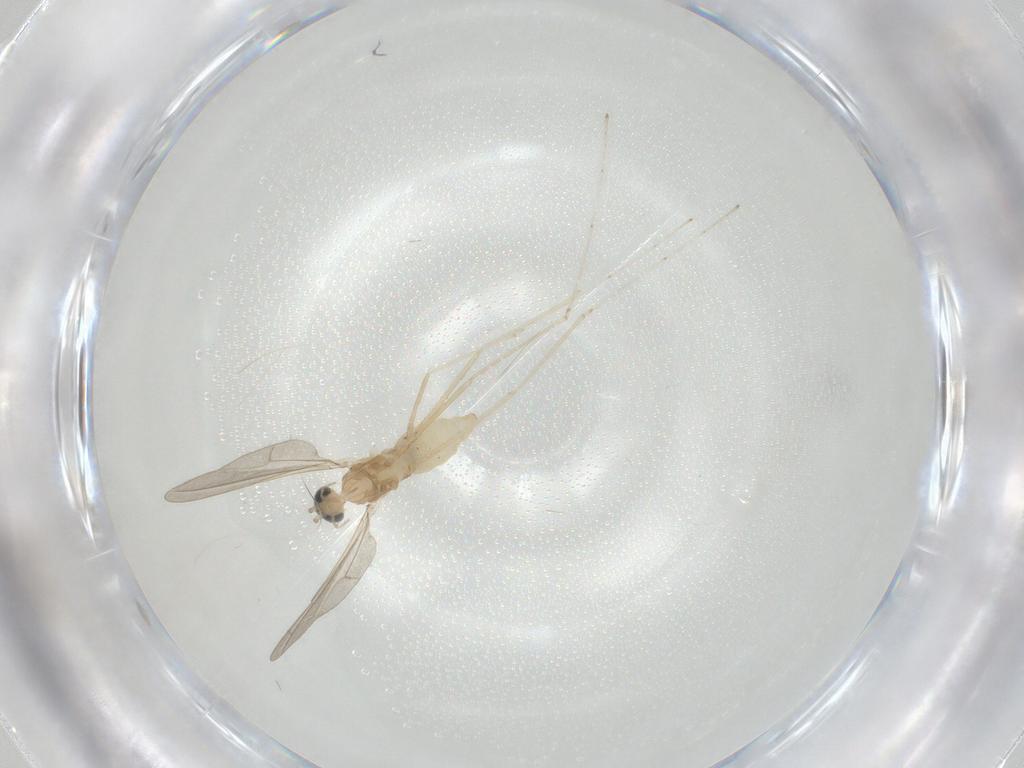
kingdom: Animalia
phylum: Arthropoda
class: Insecta
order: Diptera
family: Cecidomyiidae
